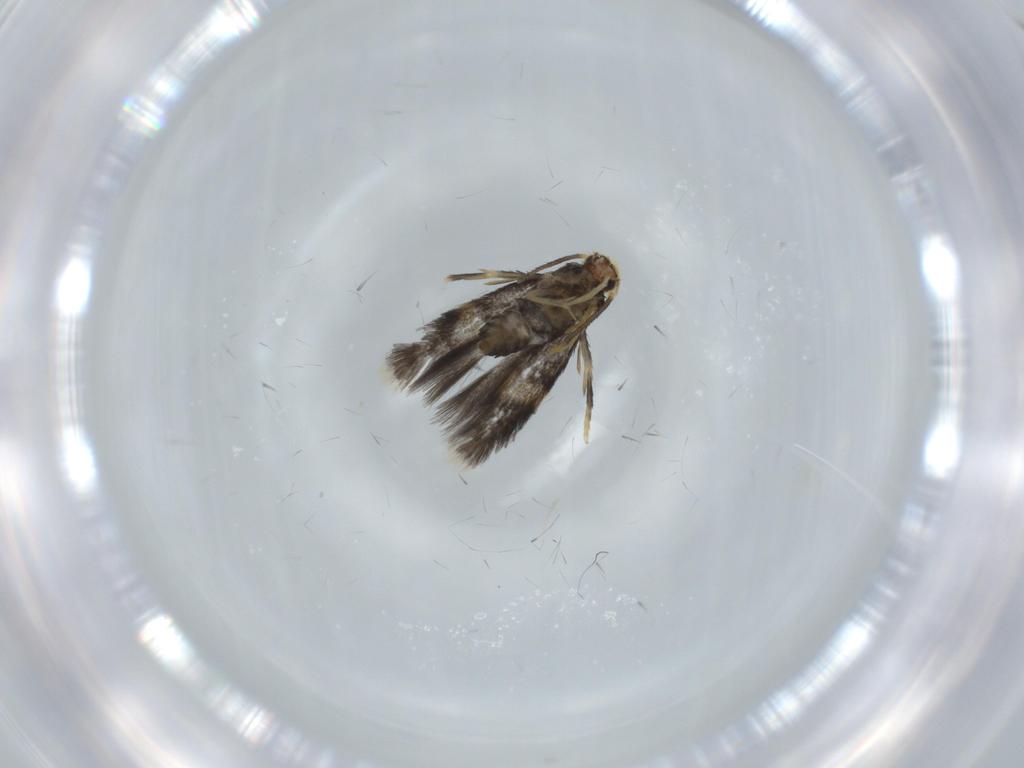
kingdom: Animalia
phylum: Arthropoda
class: Insecta
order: Lepidoptera
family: Nepticulidae
